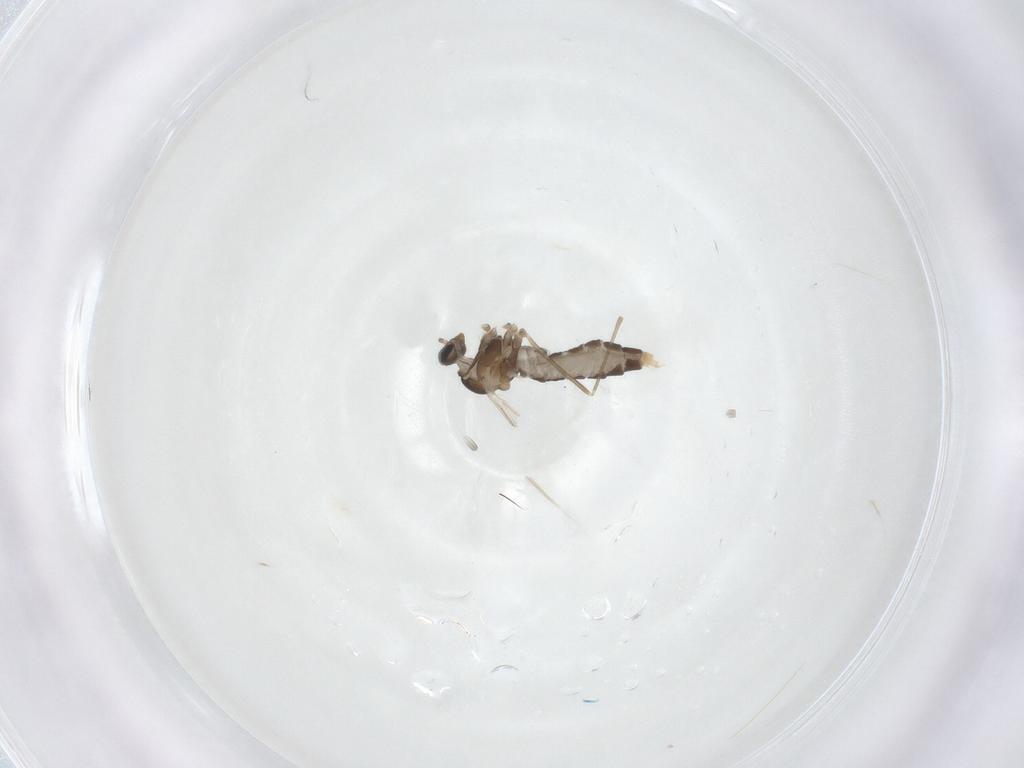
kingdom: Animalia
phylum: Arthropoda
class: Insecta
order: Diptera
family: Cecidomyiidae
